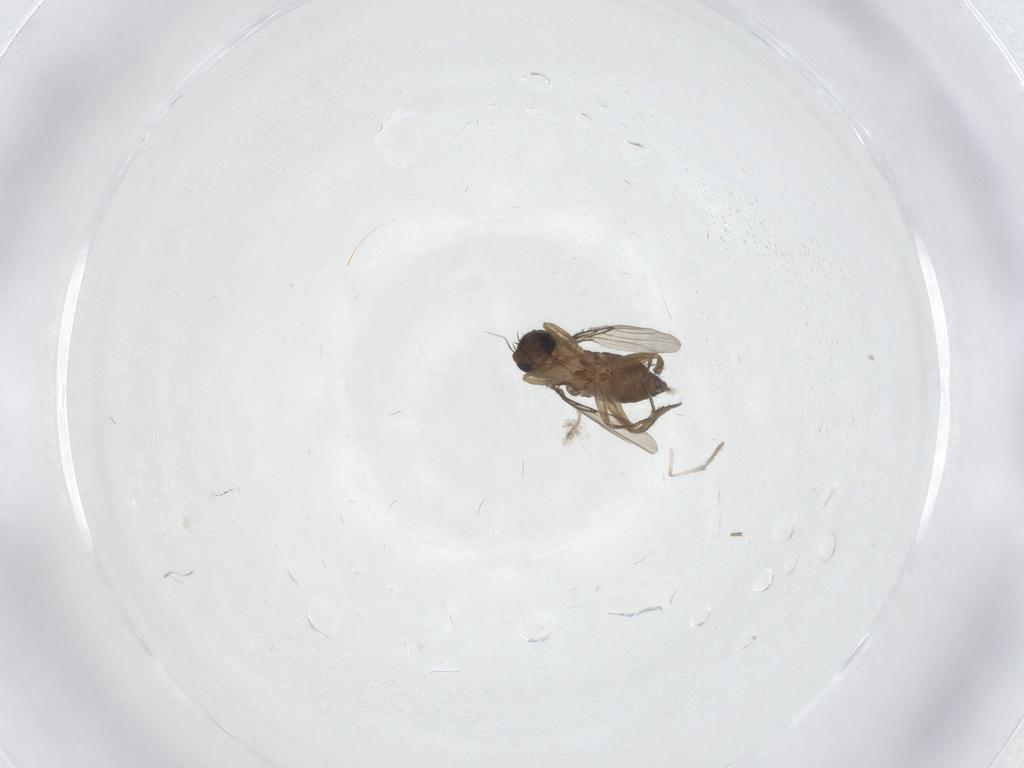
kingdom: Animalia
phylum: Arthropoda
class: Insecta
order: Diptera
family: Phoridae
